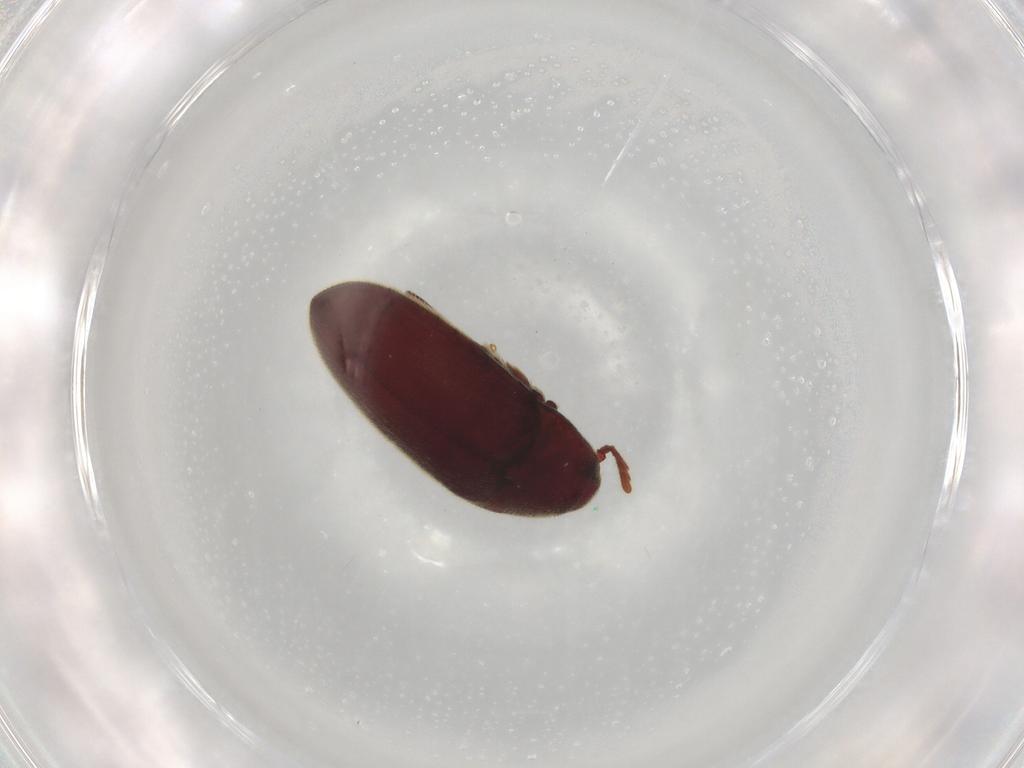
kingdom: Animalia
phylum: Arthropoda
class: Insecta
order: Coleoptera
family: Throscidae
